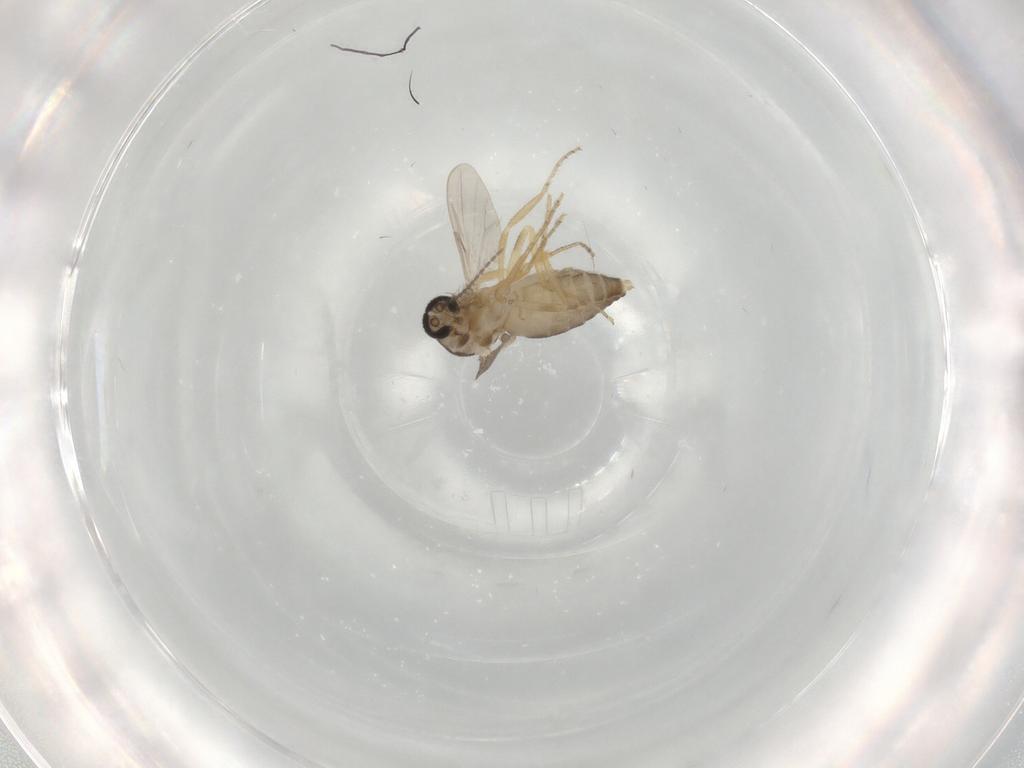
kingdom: Animalia
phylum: Arthropoda
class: Insecta
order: Diptera
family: Ceratopogonidae
